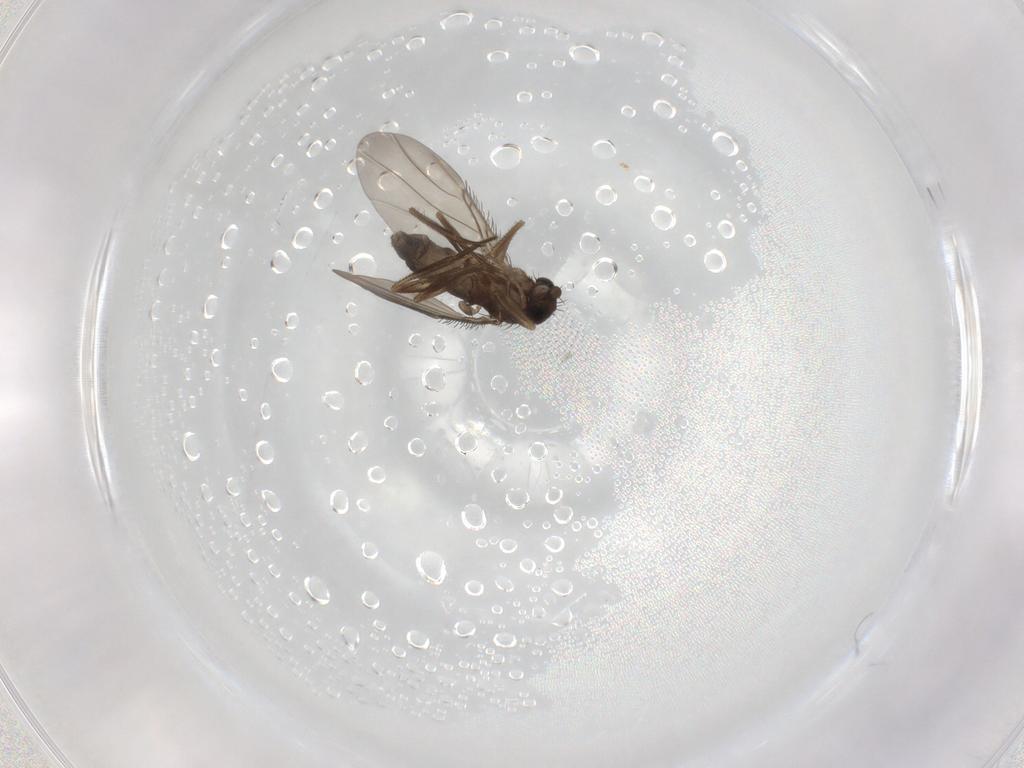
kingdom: Animalia
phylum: Arthropoda
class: Insecta
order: Diptera
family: Phoridae
